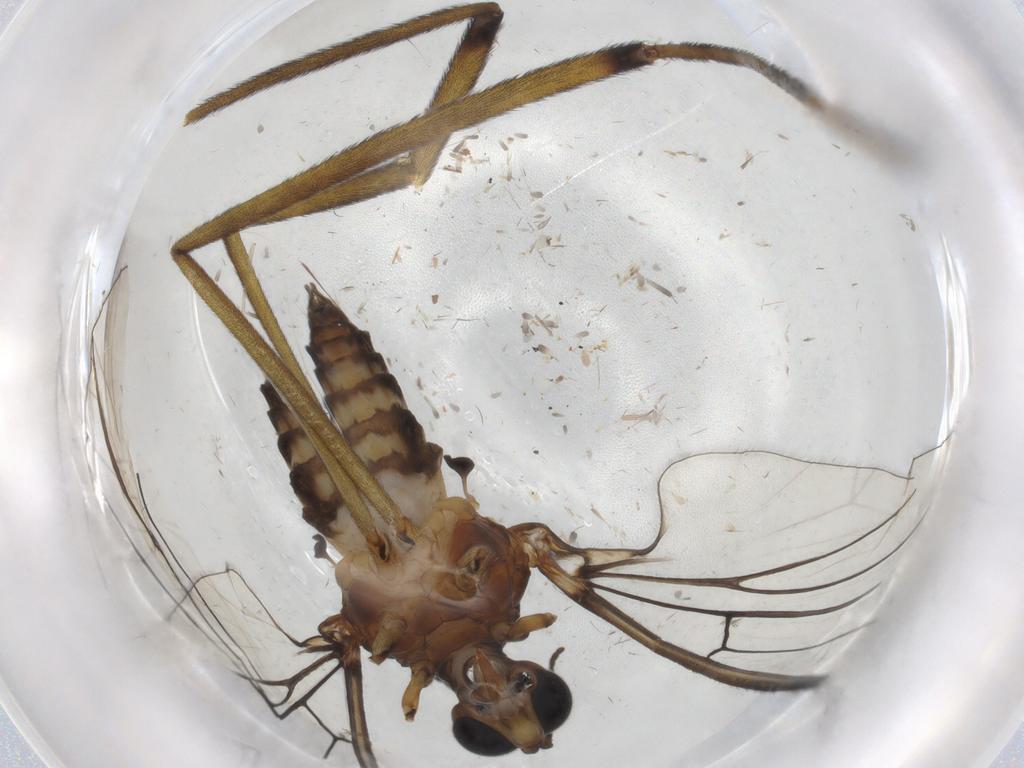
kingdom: Animalia
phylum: Arthropoda
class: Insecta
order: Diptera
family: Blephariceridae
